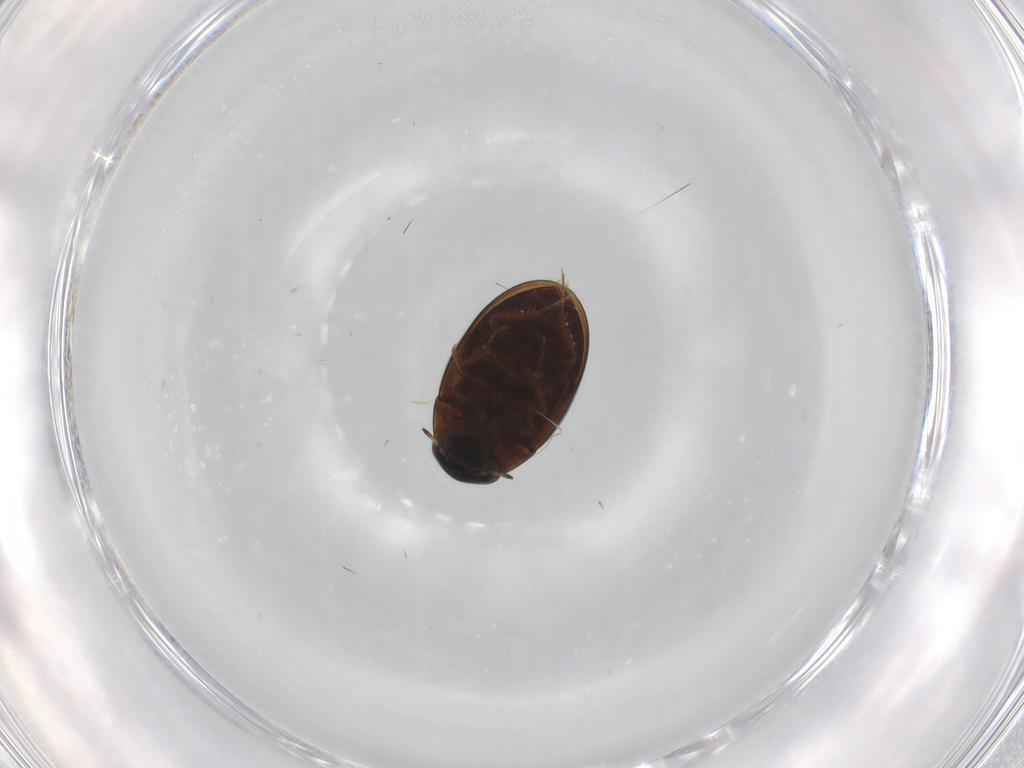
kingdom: Animalia
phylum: Arthropoda
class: Insecta
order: Coleoptera
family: Hydrophilidae
